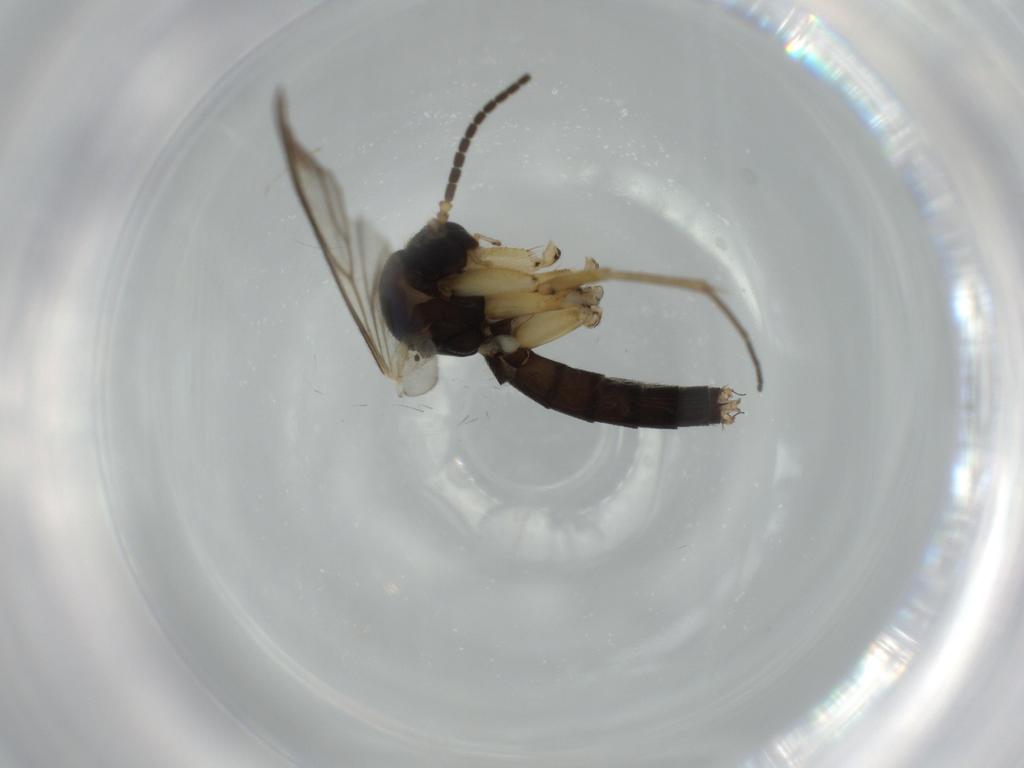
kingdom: Animalia
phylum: Arthropoda
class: Insecta
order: Diptera
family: Mycetophilidae
